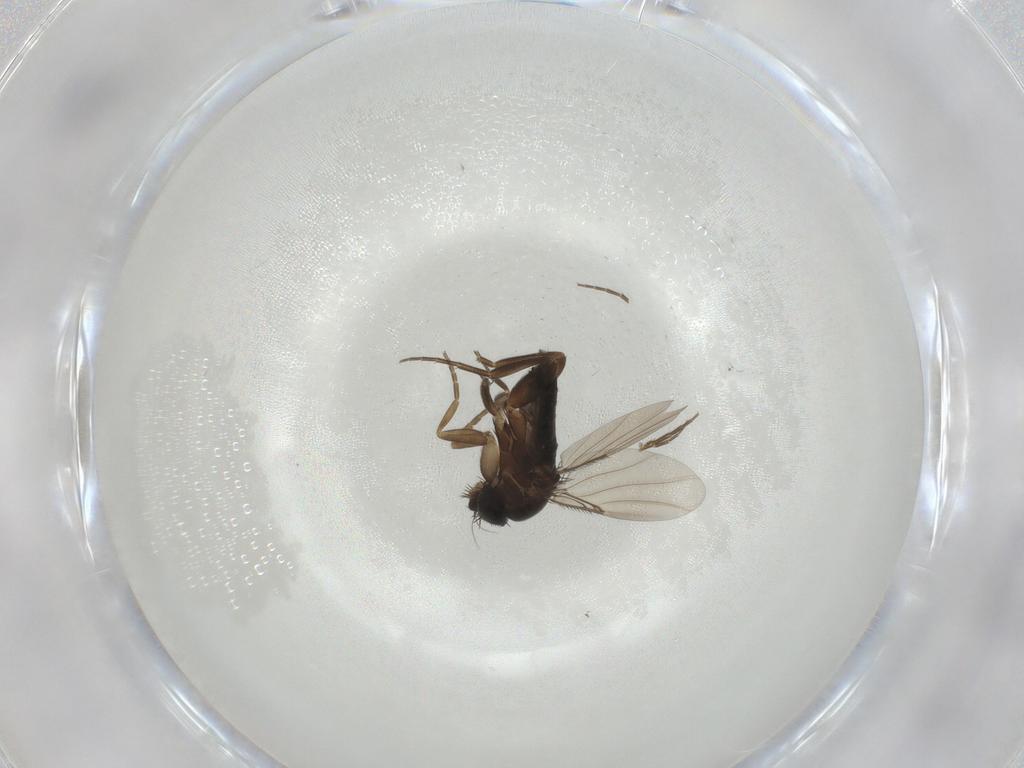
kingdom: Animalia
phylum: Arthropoda
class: Insecta
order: Diptera
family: Phoridae
